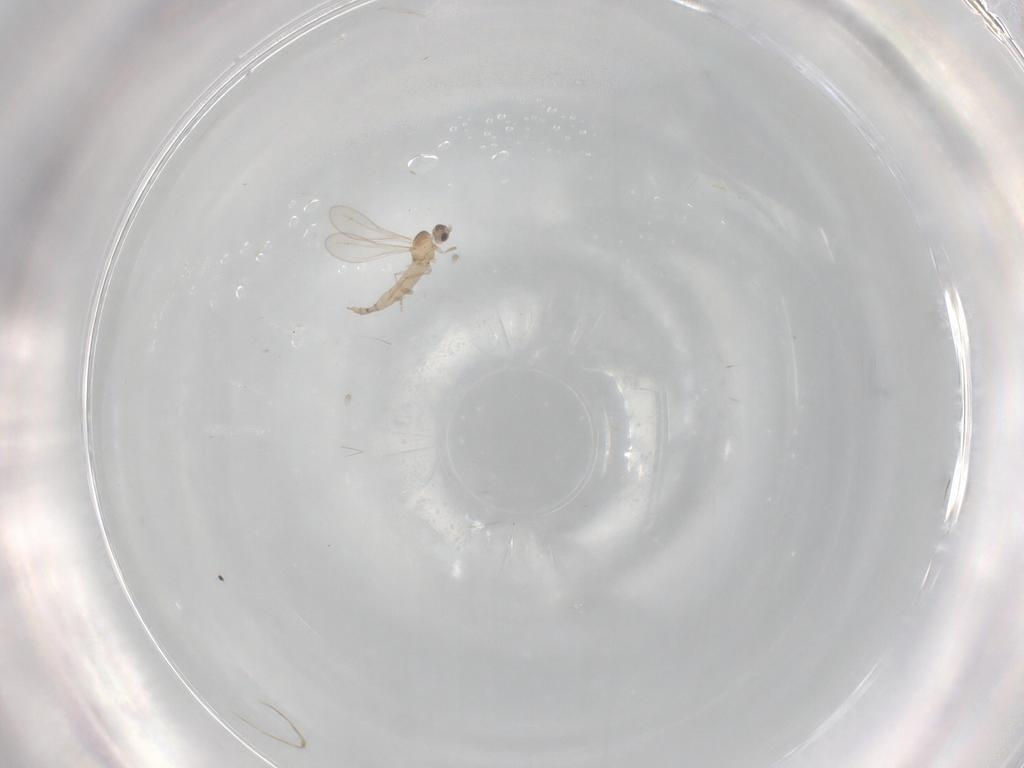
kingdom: Animalia
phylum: Arthropoda
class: Insecta
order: Diptera
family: Cecidomyiidae
